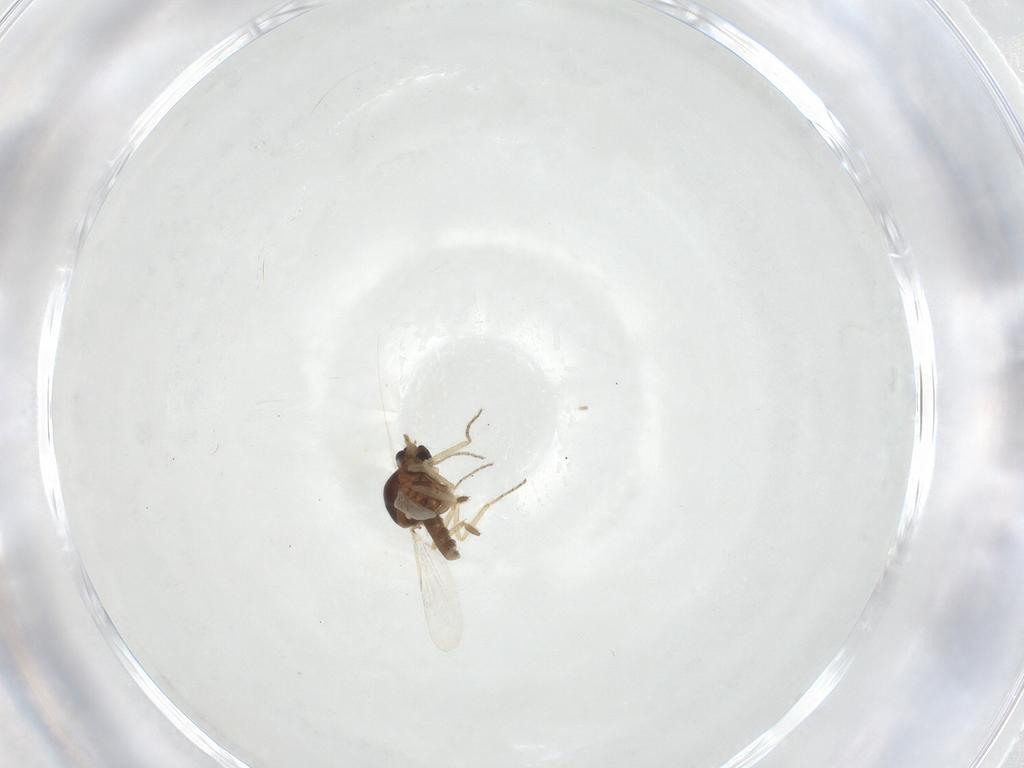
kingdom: Animalia
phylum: Arthropoda
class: Insecta
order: Diptera
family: Ceratopogonidae
